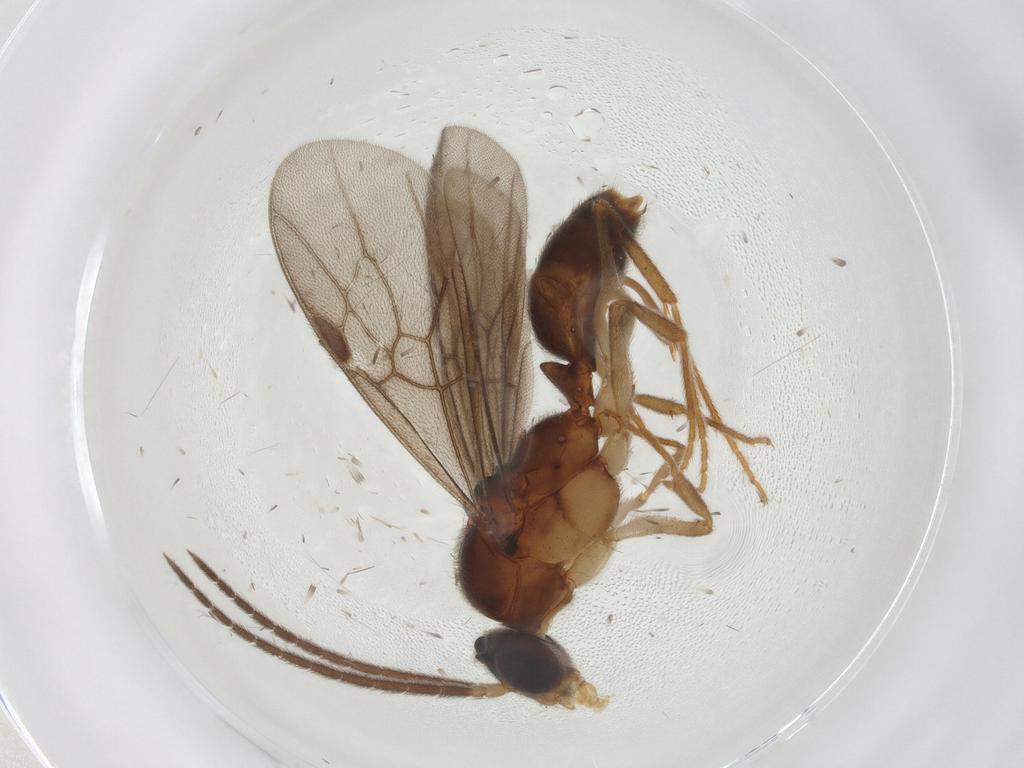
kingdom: Animalia
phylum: Arthropoda
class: Insecta
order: Hymenoptera
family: Formicidae
